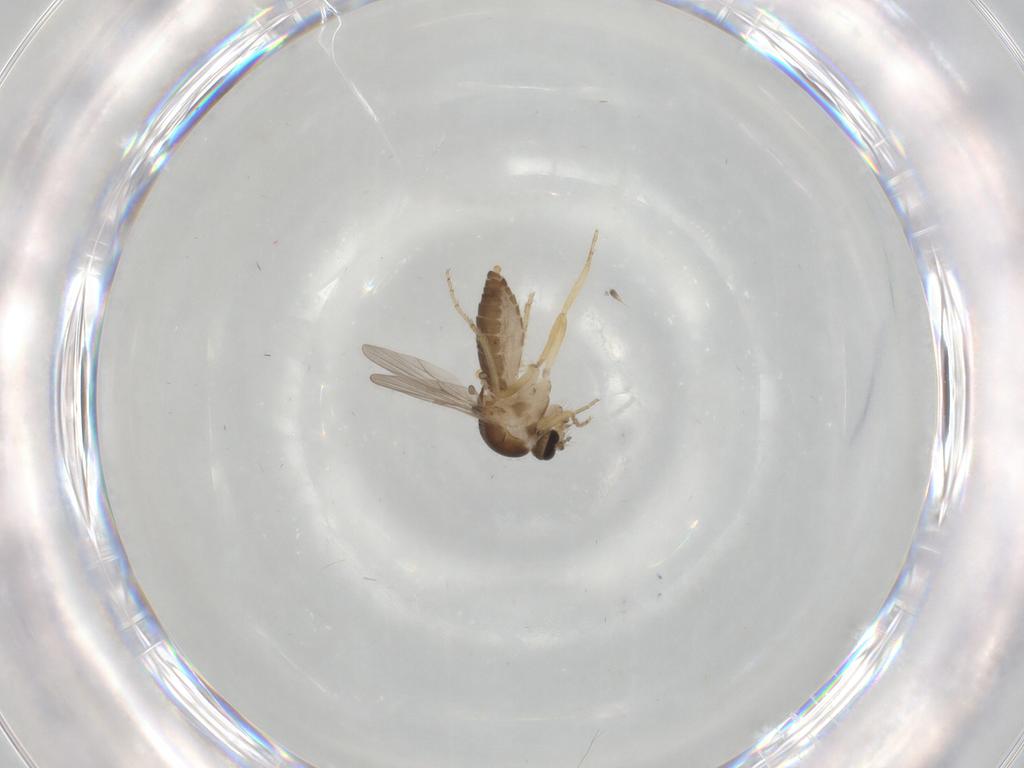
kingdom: Animalia
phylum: Arthropoda
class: Insecta
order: Diptera
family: Ceratopogonidae
